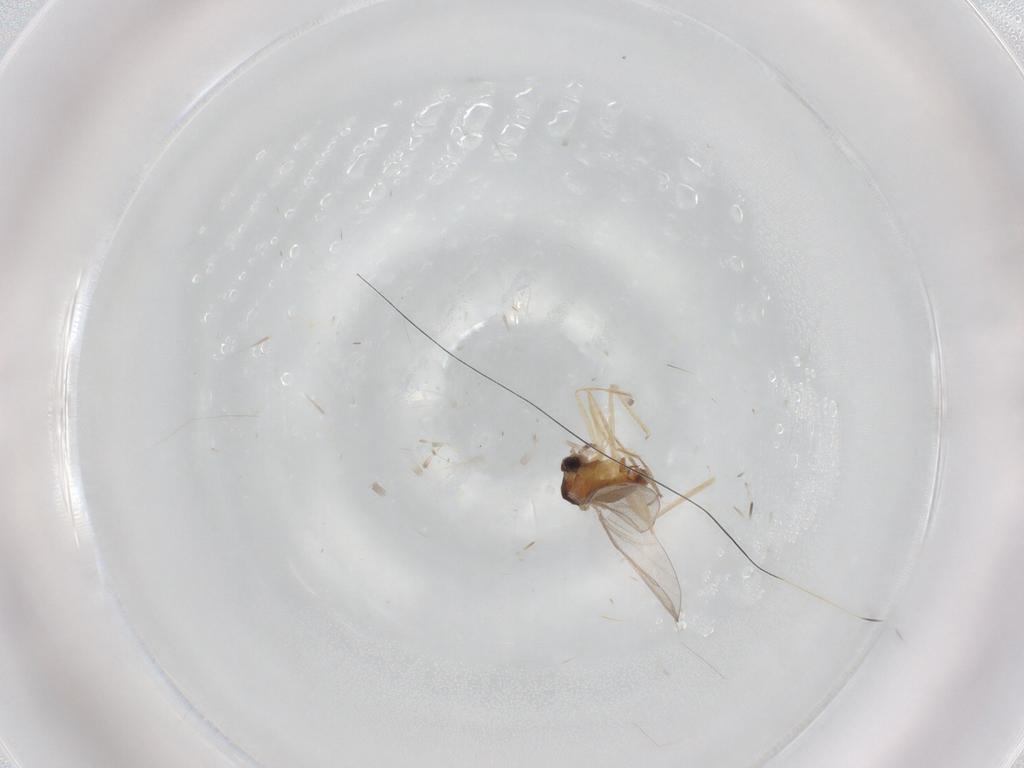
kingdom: Animalia
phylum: Arthropoda
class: Insecta
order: Diptera
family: Cecidomyiidae
